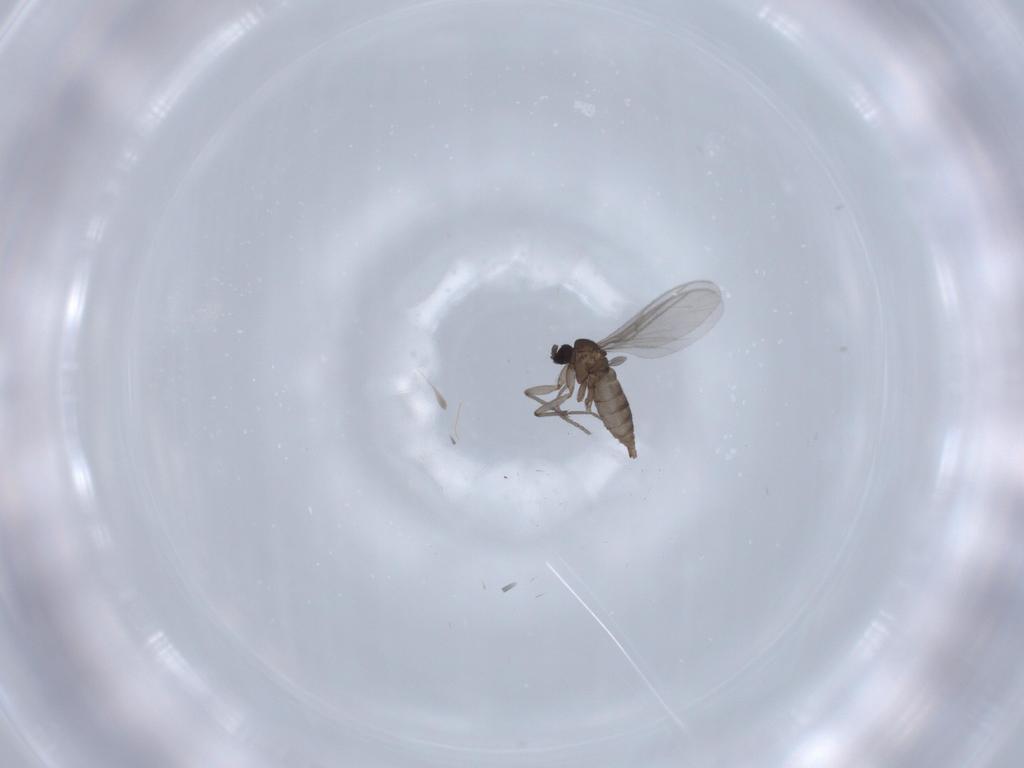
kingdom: Animalia
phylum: Arthropoda
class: Insecta
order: Diptera
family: Sciaridae
